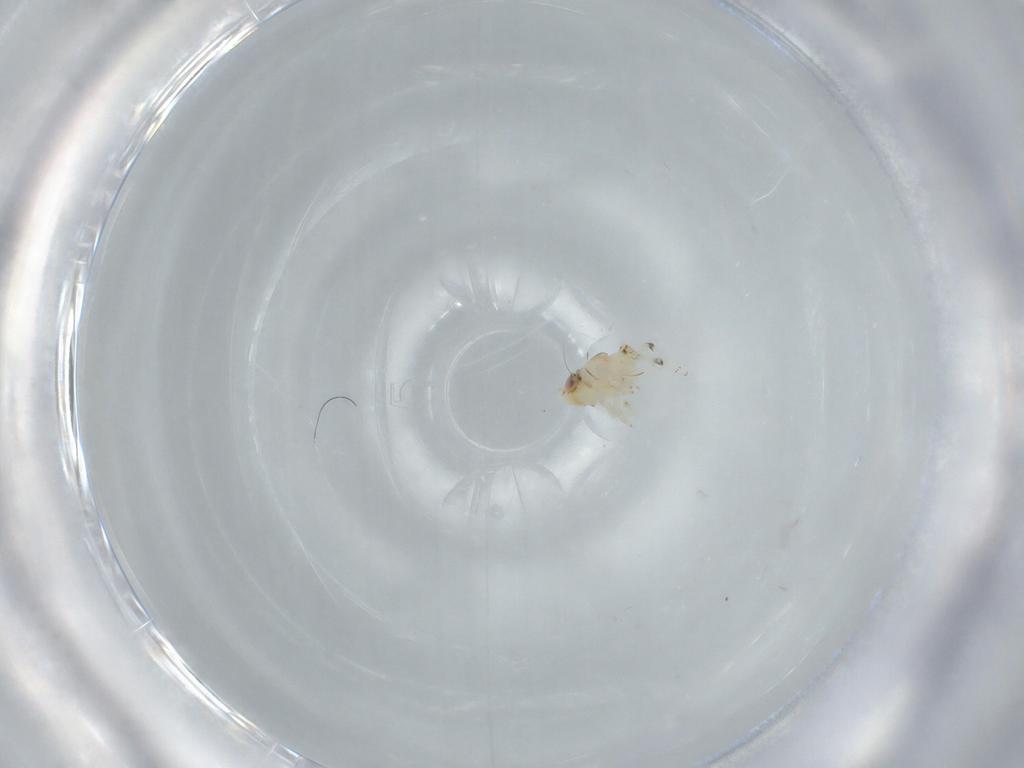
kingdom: Animalia
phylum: Arthropoda
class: Insecta
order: Hemiptera
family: Nogodinidae
